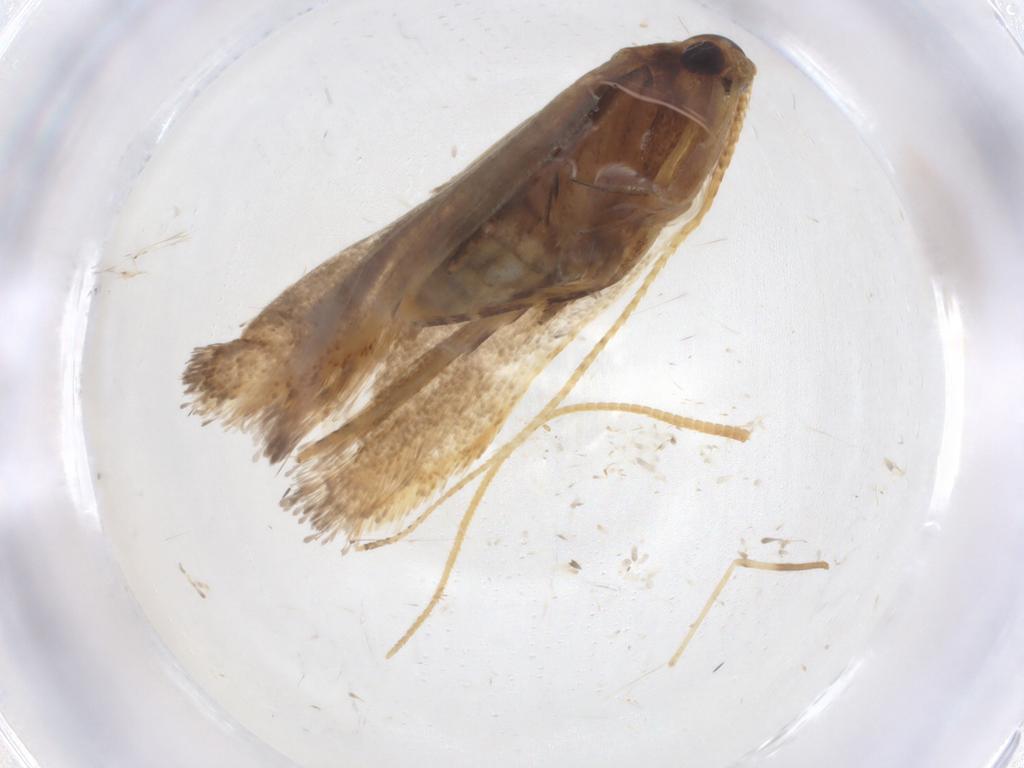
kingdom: Animalia
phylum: Arthropoda
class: Insecta
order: Lepidoptera
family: Lecithoceridae
